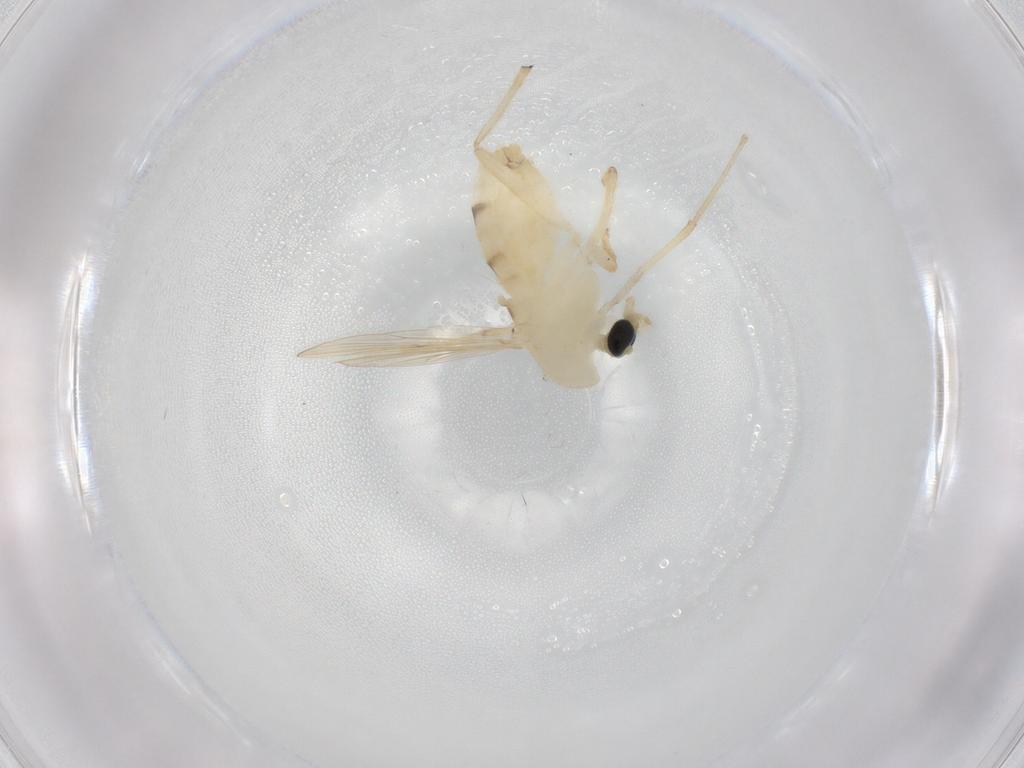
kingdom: Animalia
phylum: Arthropoda
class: Insecta
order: Diptera
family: Chironomidae
